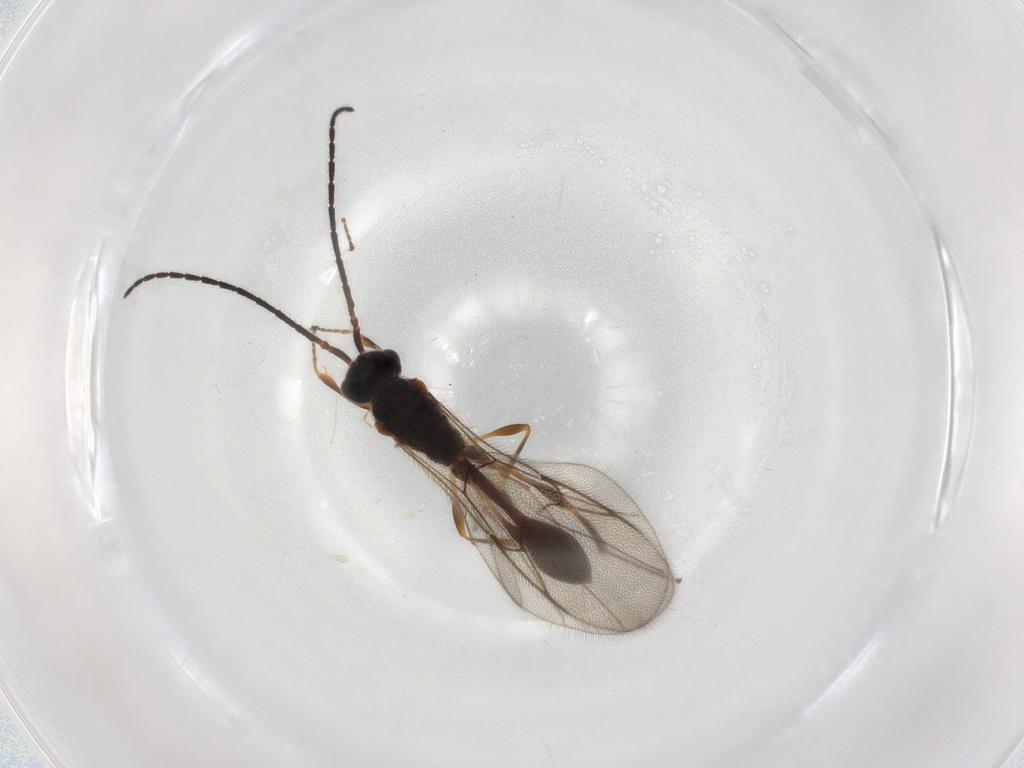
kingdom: Animalia
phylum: Arthropoda
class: Insecta
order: Hymenoptera
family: Diapriidae
